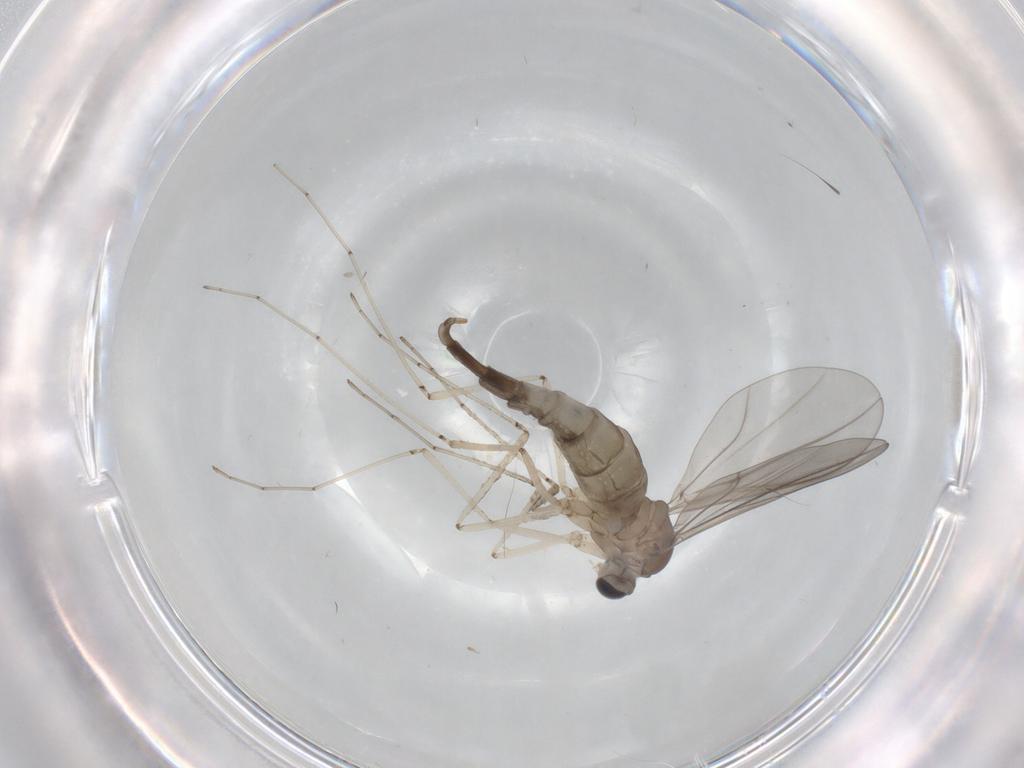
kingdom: Animalia
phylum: Arthropoda
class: Insecta
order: Diptera
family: Cecidomyiidae
